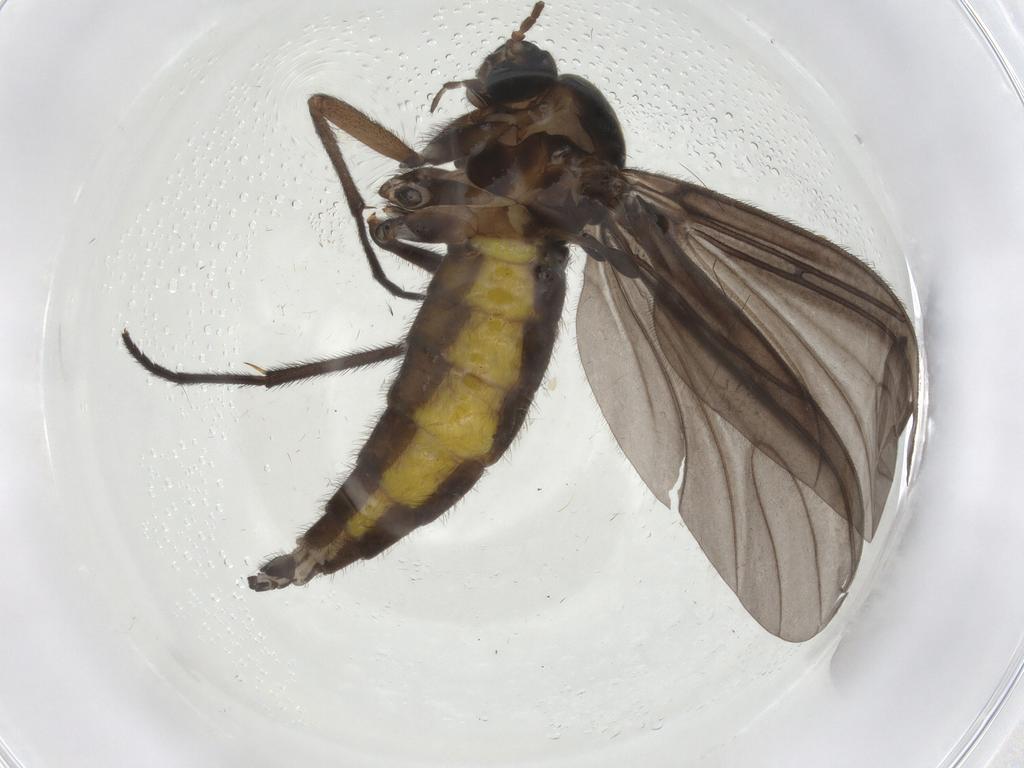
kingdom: Animalia
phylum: Arthropoda
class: Insecta
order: Diptera
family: Sciaridae
